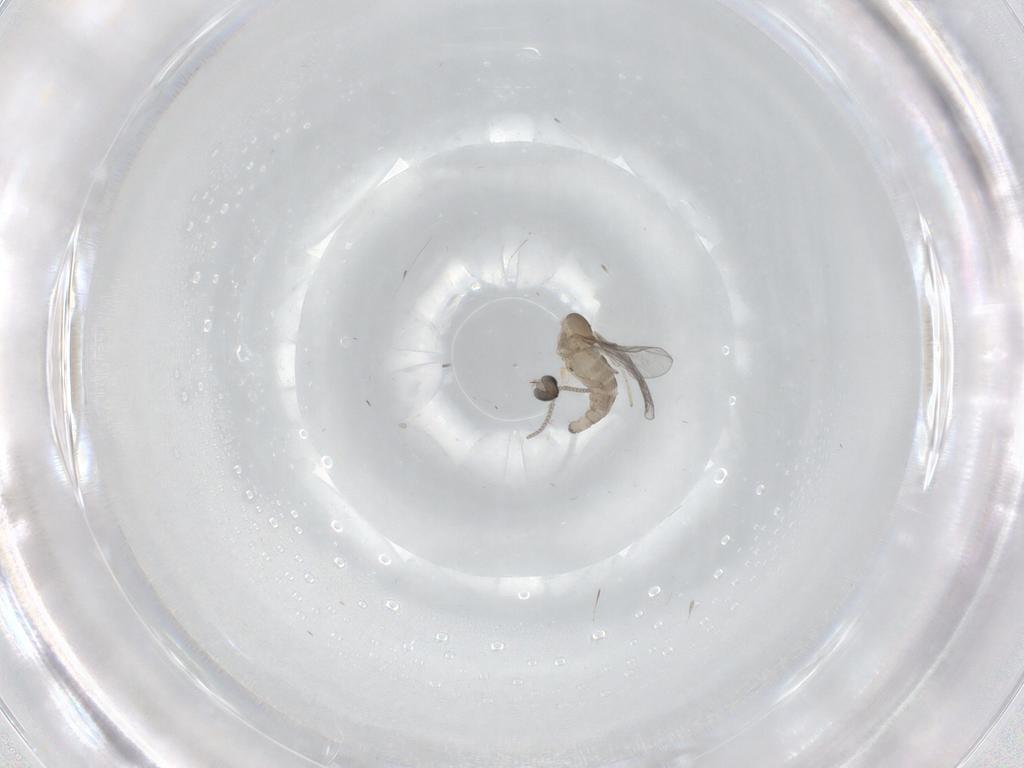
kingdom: Animalia
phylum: Arthropoda
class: Insecta
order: Diptera
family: Cecidomyiidae
